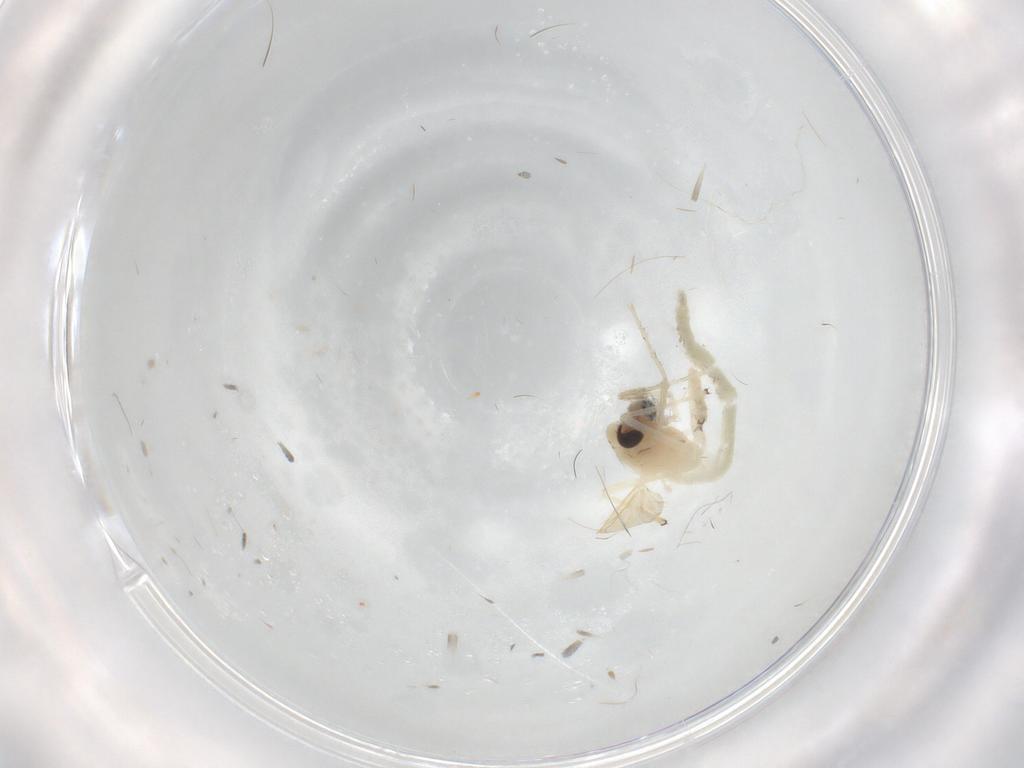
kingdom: Animalia
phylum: Arthropoda
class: Insecta
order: Diptera
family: Chironomidae
